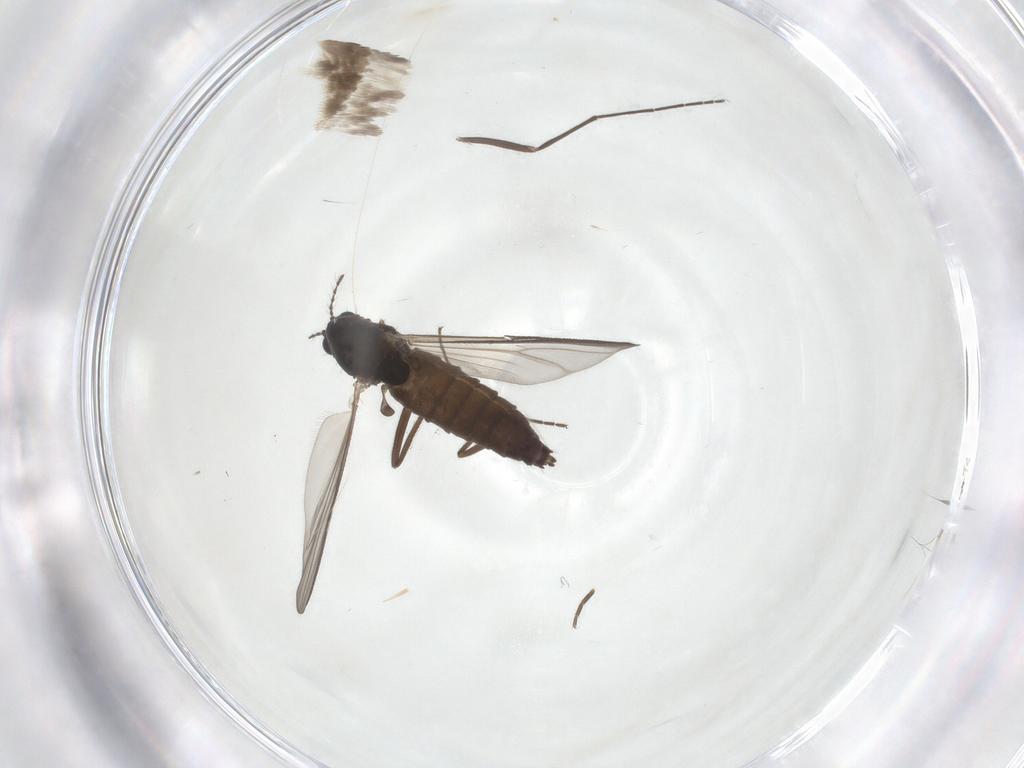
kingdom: Animalia
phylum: Arthropoda
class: Insecta
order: Diptera
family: Chironomidae
